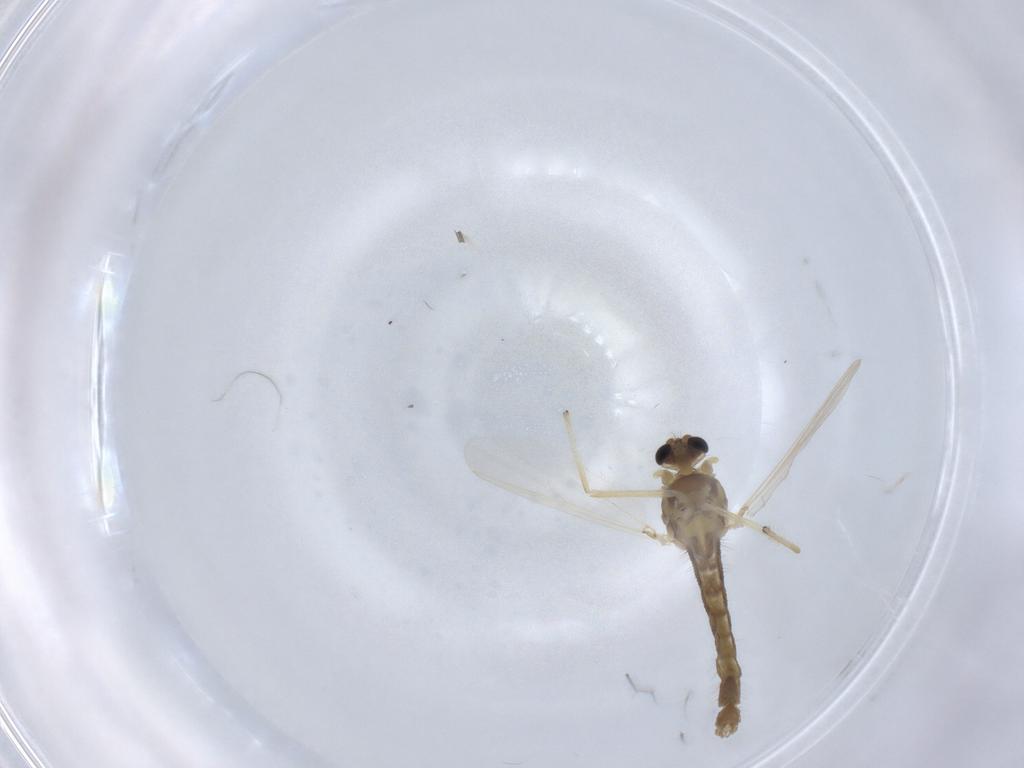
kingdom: Animalia
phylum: Arthropoda
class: Insecta
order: Diptera
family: Chironomidae
